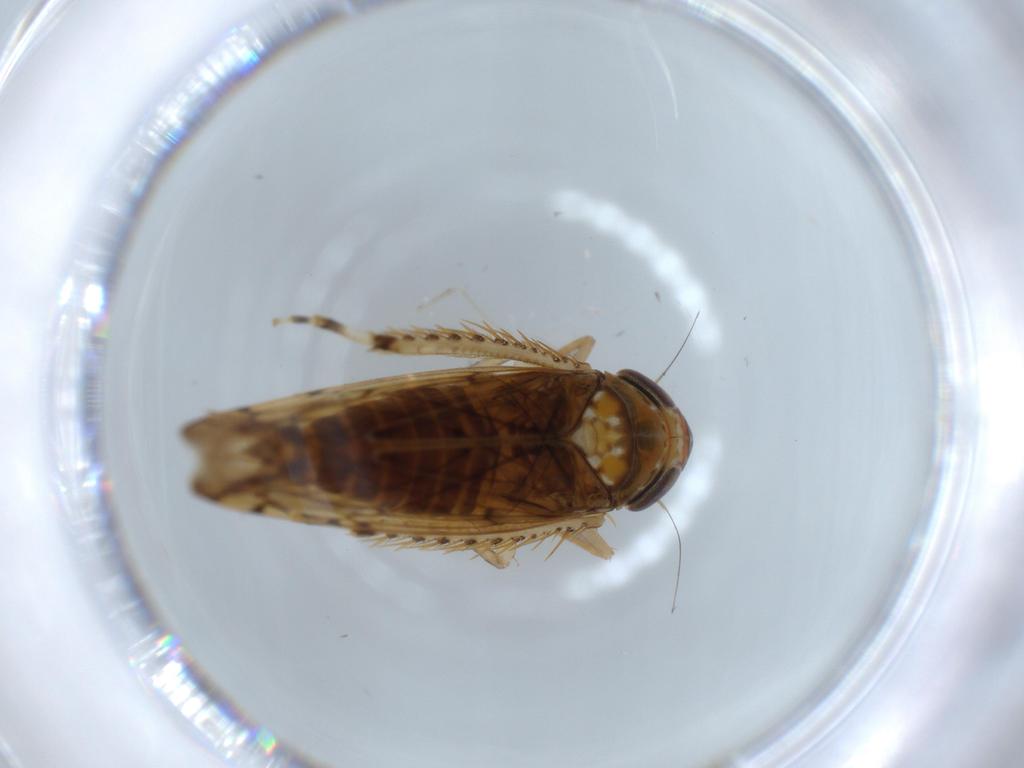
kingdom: Animalia
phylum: Arthropoda
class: Insecta
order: Hemiptera
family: Cicadellidae
